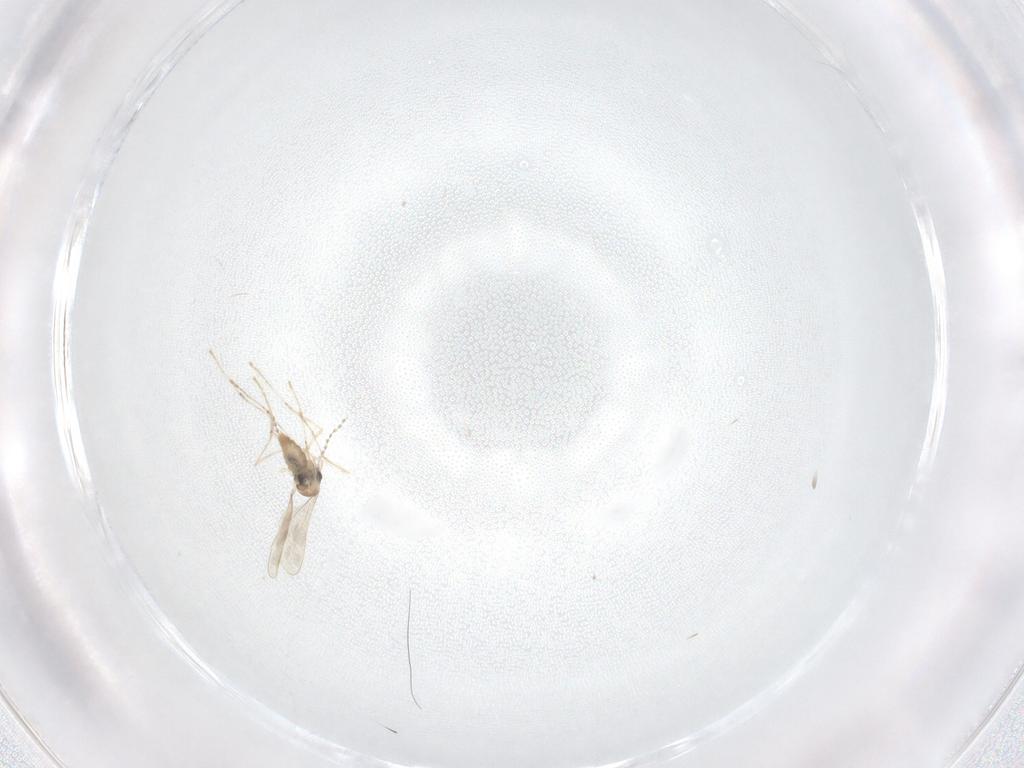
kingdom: Animalia
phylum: Arthropoda
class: Insecta
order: Diptera
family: Cecidomyiidae
